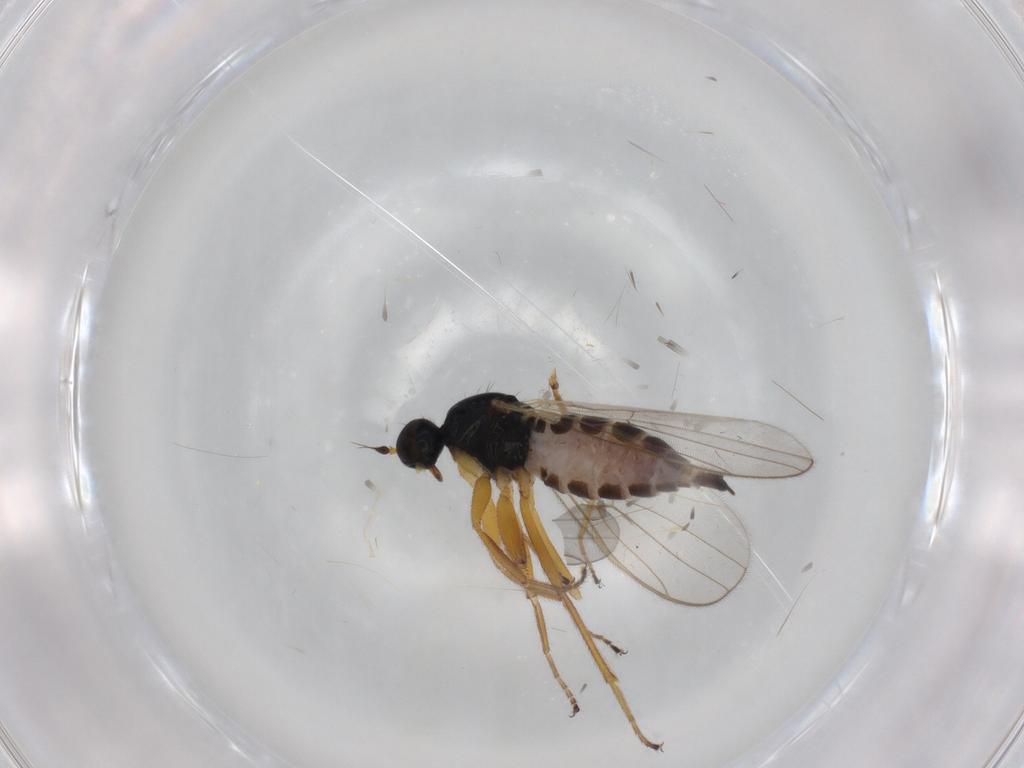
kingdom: Animalia
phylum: Arthropoda
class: Insecta
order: Diptera
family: Hybotidae
